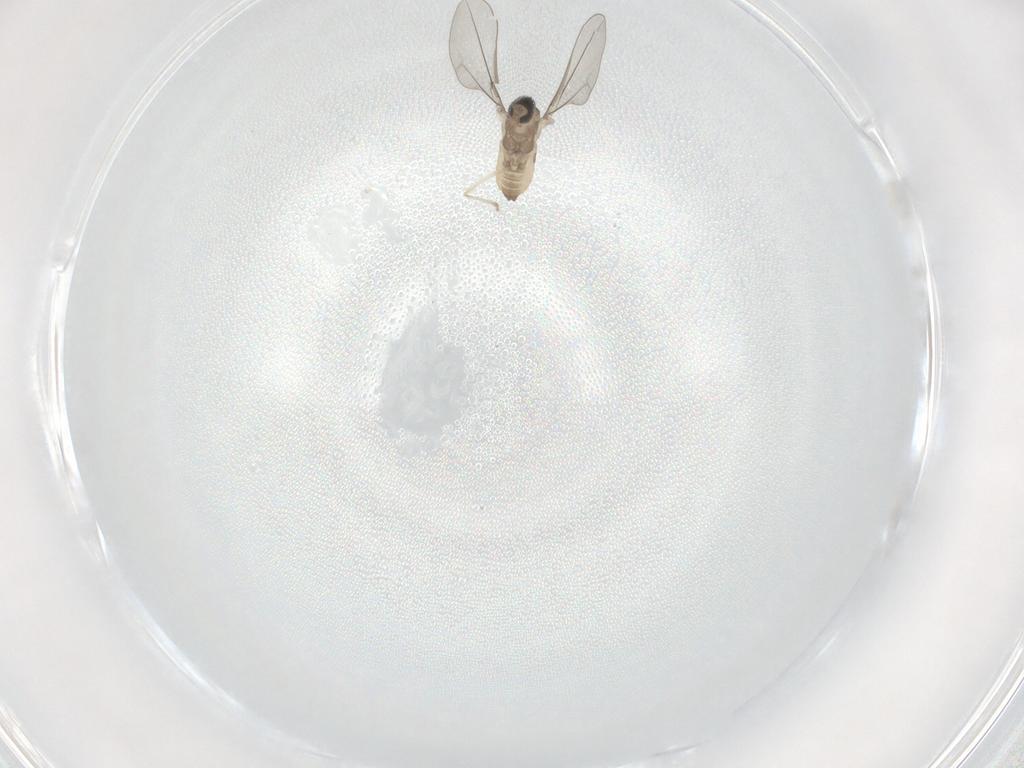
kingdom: Animalia
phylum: Arthropoda
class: Insecta
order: Diptera
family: Cecidomyiidae
